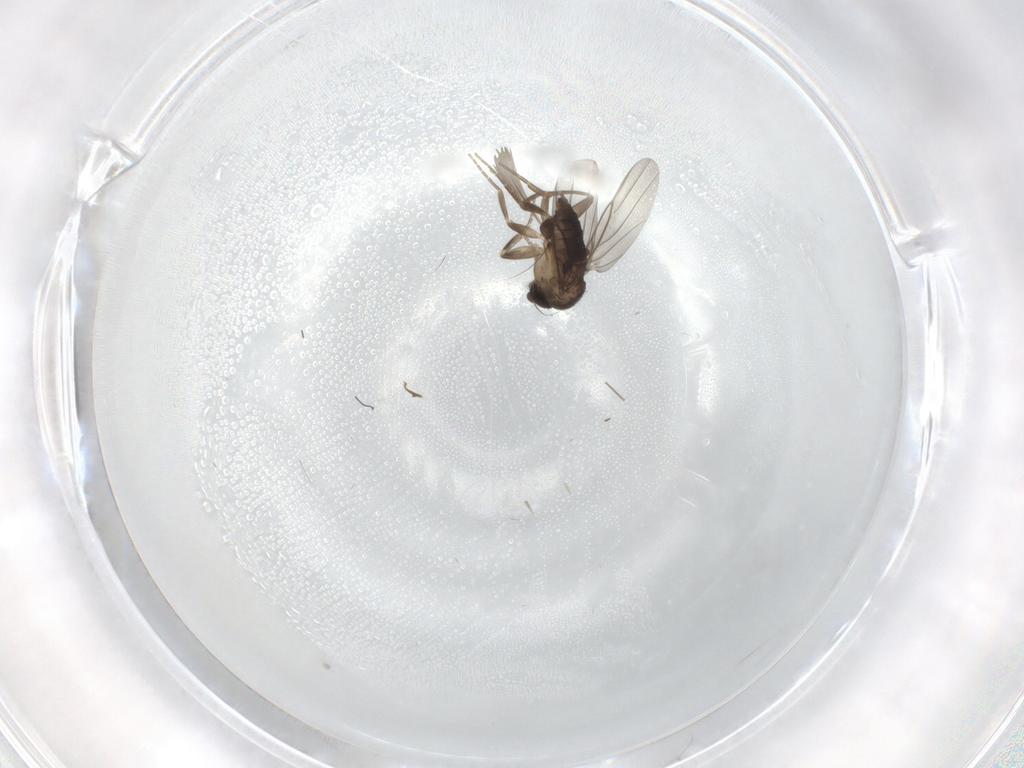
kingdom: Animalia
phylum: Arthropoda
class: Insecta
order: Diptera
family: Phoridae
